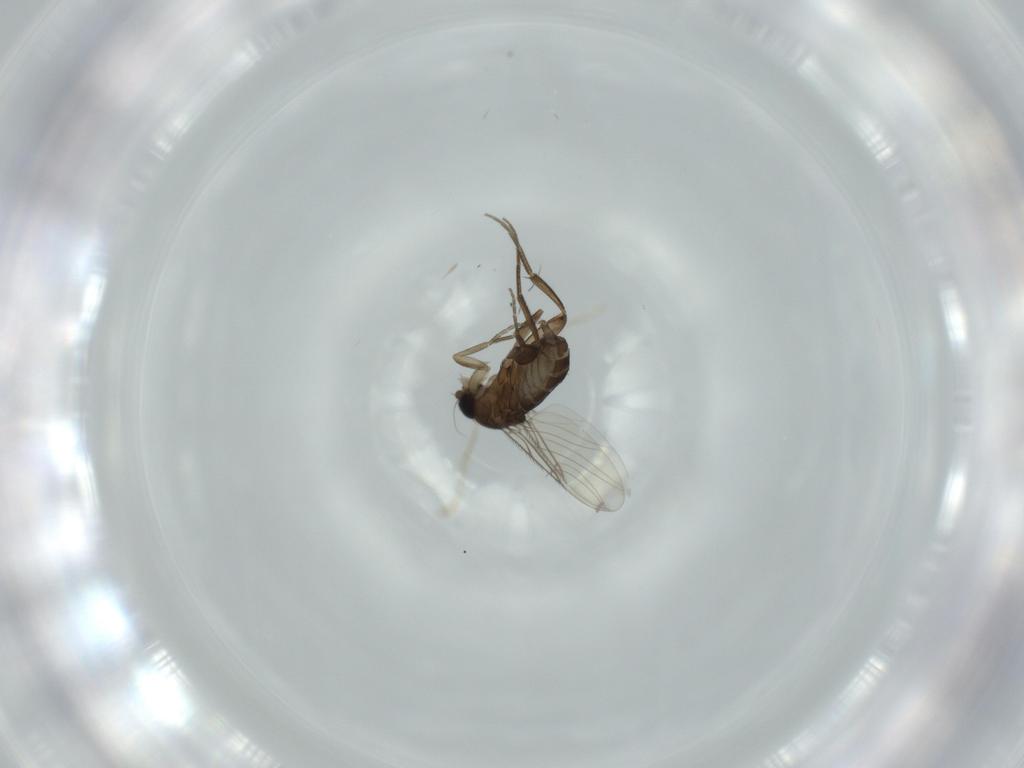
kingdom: Animalia
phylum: Arthropoda
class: Insecta
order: Diptera
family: Phoridae
